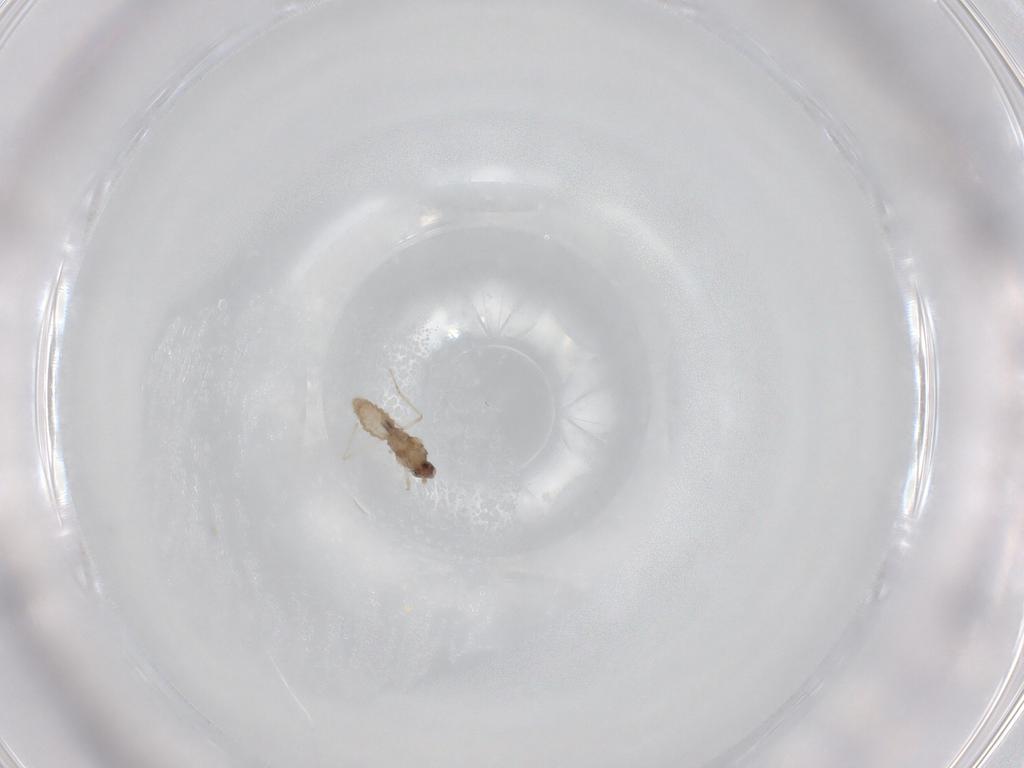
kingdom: Animalia
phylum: Arthropoda
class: Insecta
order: Diptera
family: Cecidomyiidae
